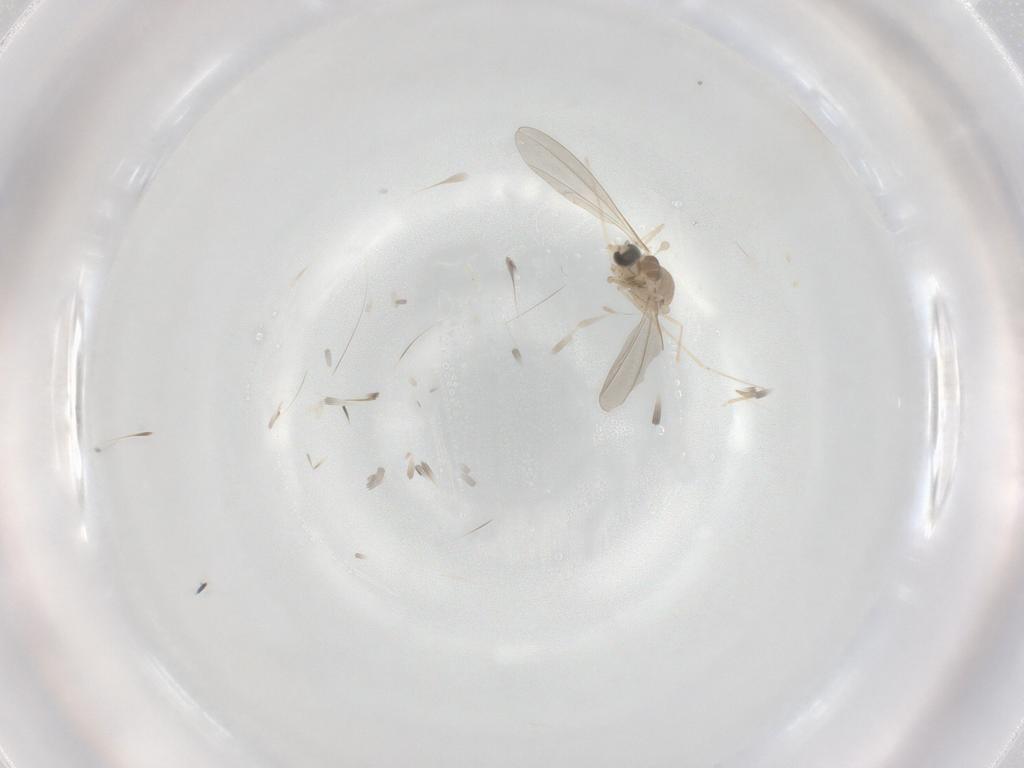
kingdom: Animalia
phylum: Arthropoda
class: Insecta
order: Diptera
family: Cecidomyiidae
